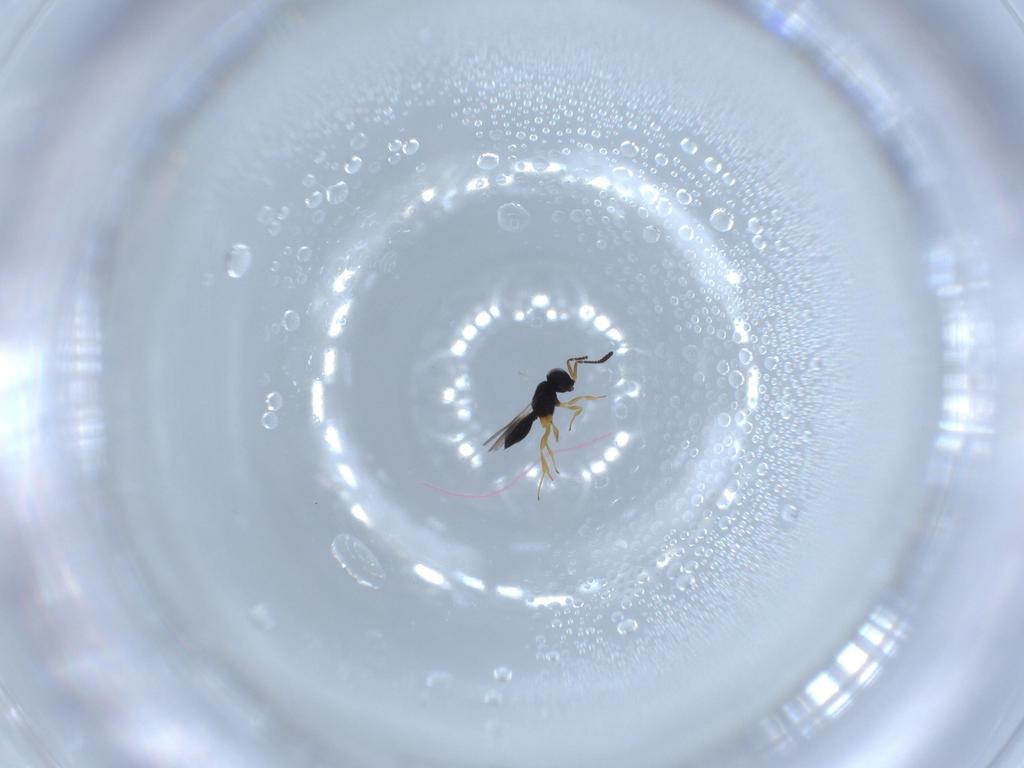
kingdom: Animalia
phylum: Arthropoda
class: Insecta
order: Hymenoptera
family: Scelionidae
